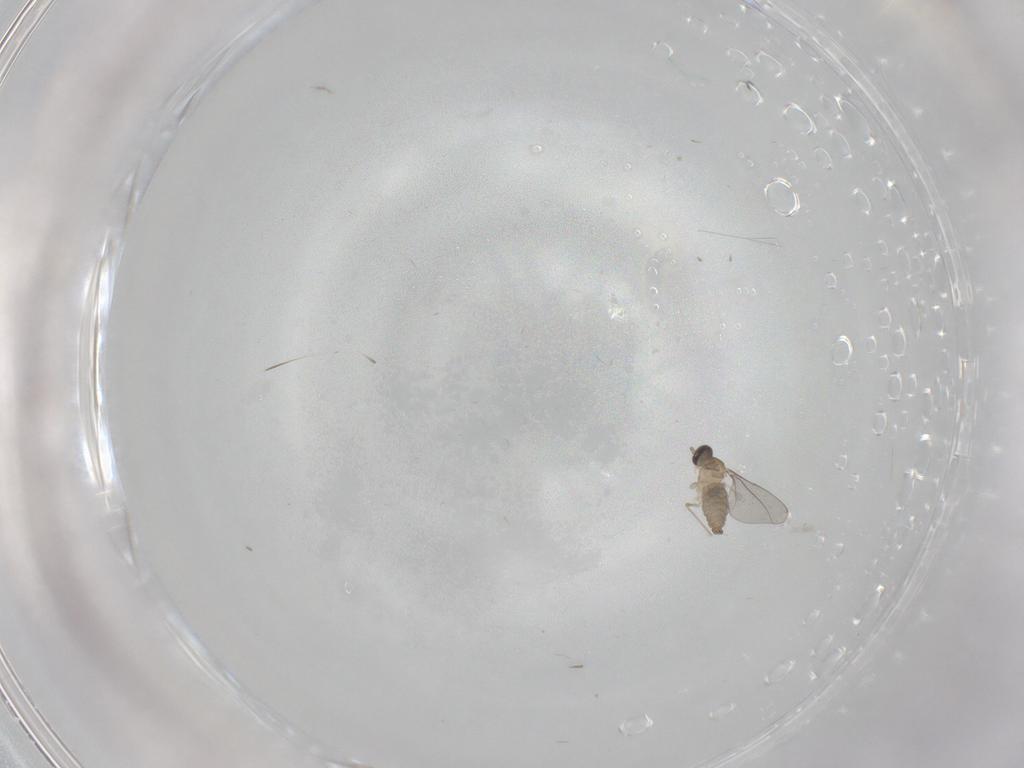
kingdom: Animalia
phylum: Arthropoda
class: Insecta
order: Diptera
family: Cecidomyiidae
